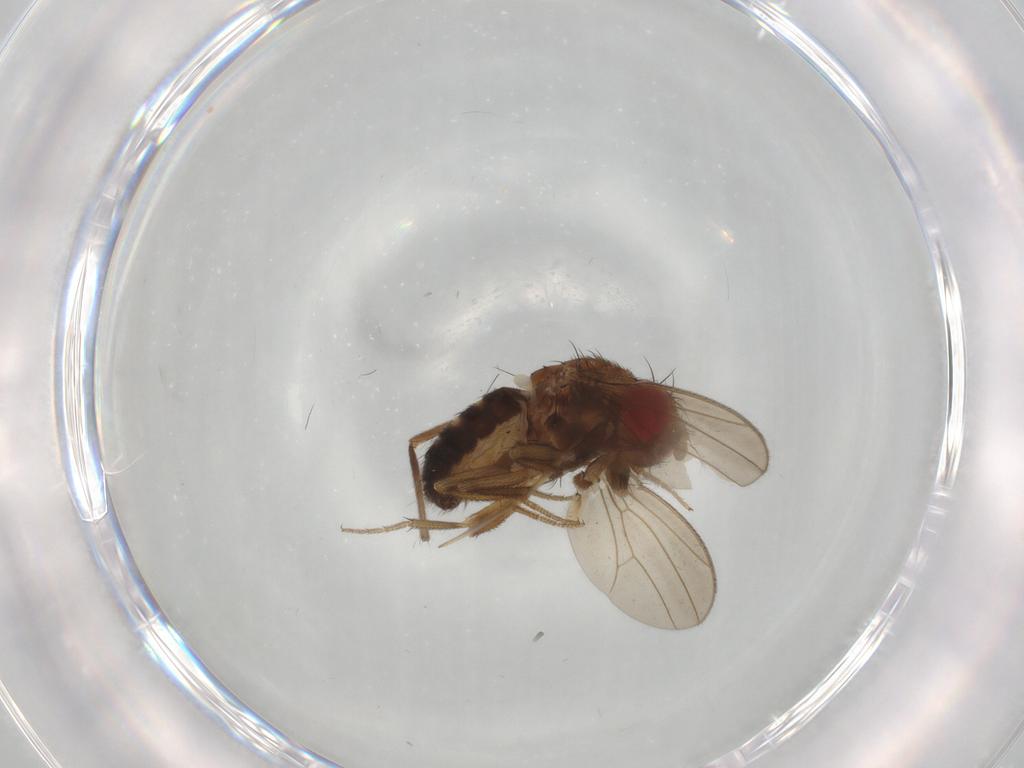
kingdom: Animalia
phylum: Arthropoda
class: Insecta
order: Diptera
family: Drosophilidae
